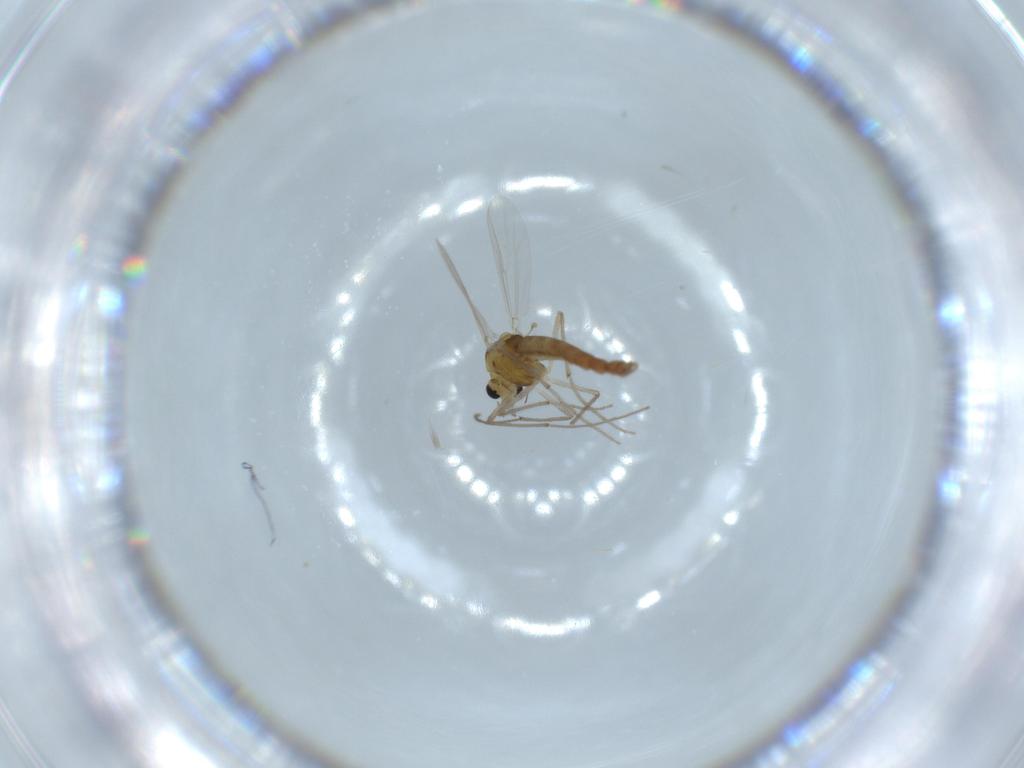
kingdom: Animalia
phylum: Arthropoda
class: Insecta
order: Diptera
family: Chironomidae
